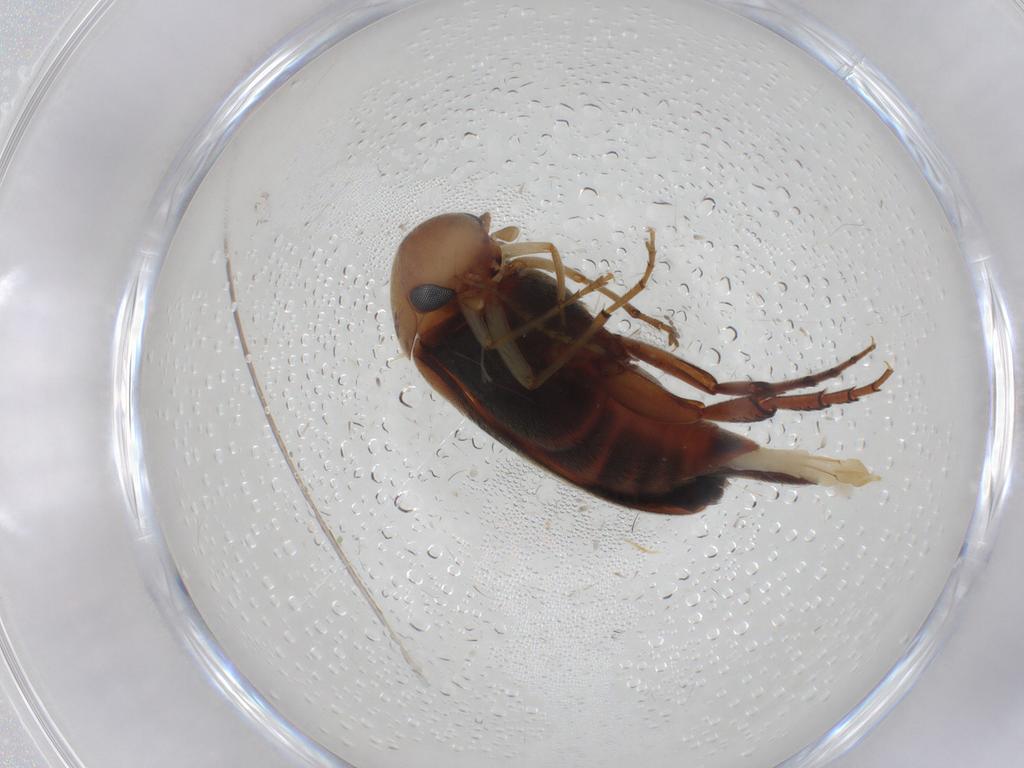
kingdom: Animalia
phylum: Arthropoda
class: Insecta
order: Coleoptera
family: Mordellidae
